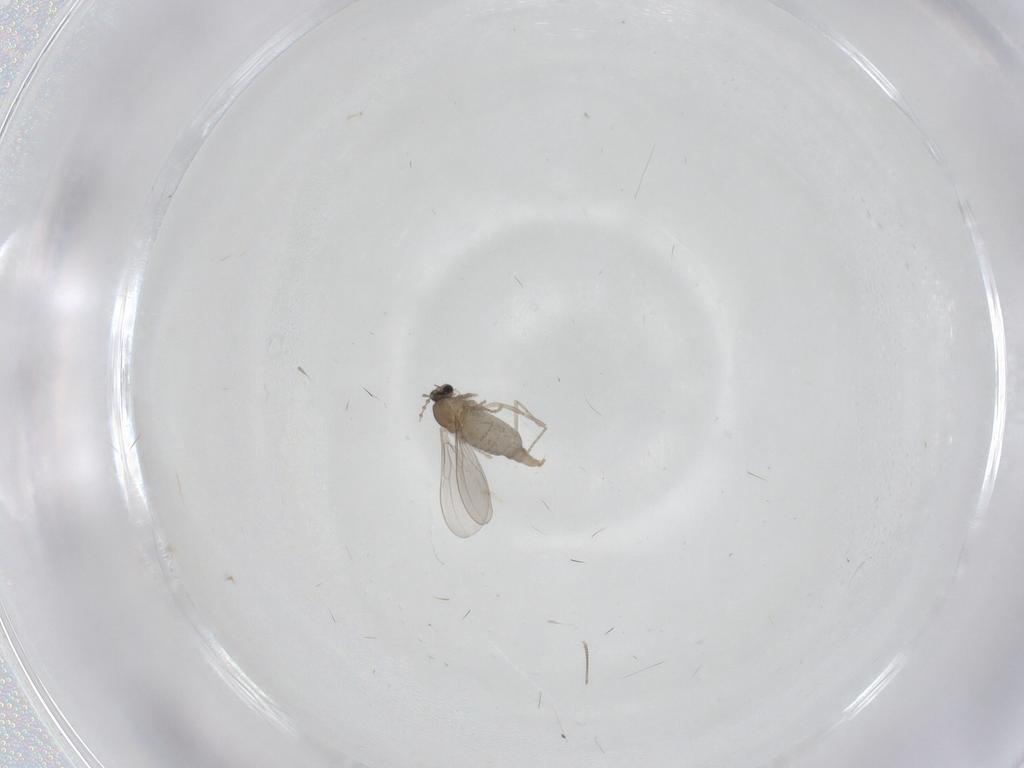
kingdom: Animalia
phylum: Arthropoda
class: Insecta
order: Diptera
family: Cecidomyiidae
